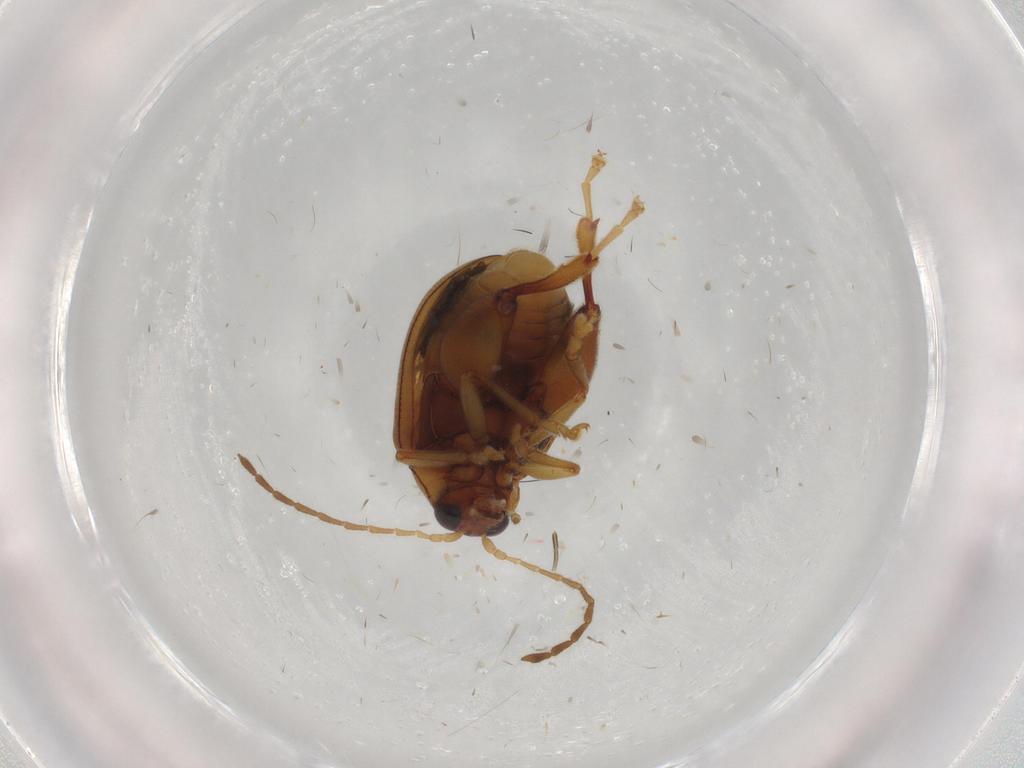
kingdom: Animalia
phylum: Arthropoda
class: Insecta
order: Coleoptera
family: Chrysomelidae
